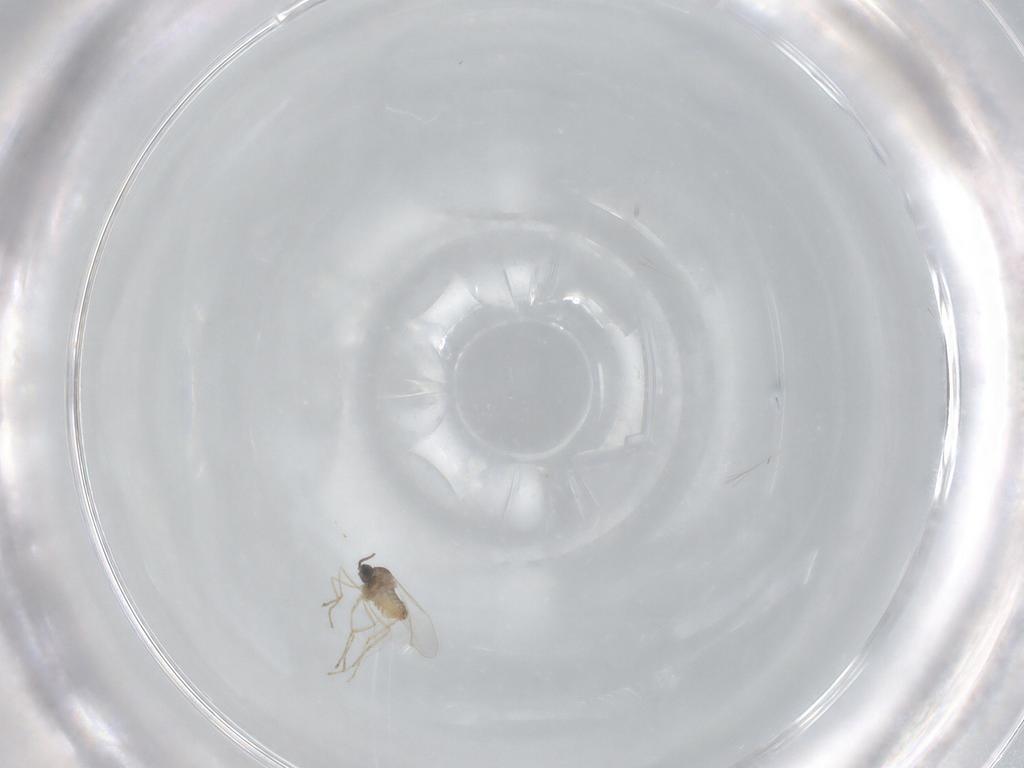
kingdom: Animalia
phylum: Arthropoda
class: Insecta
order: Diptera
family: Cecidomyiidae
